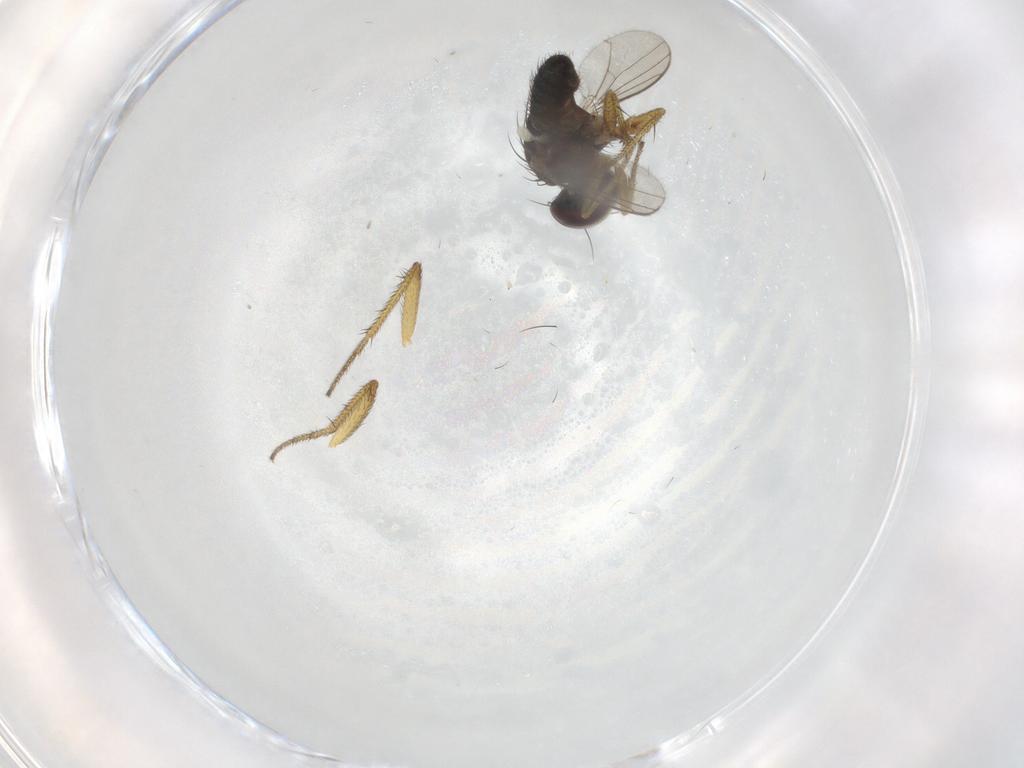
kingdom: Animalia
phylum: Arthropoda
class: Insecta
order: Diptera
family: Dolichopodidae
